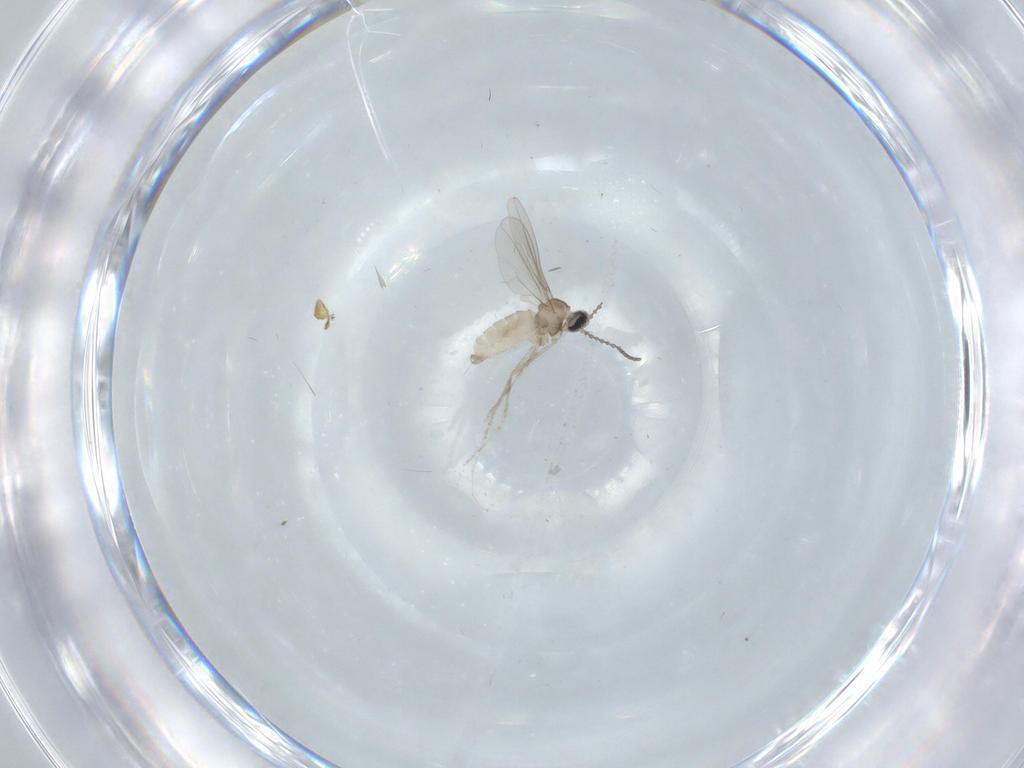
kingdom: Animalia
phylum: Arthropoda
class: Insecta
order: Diptera
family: Cecidomyiidae
